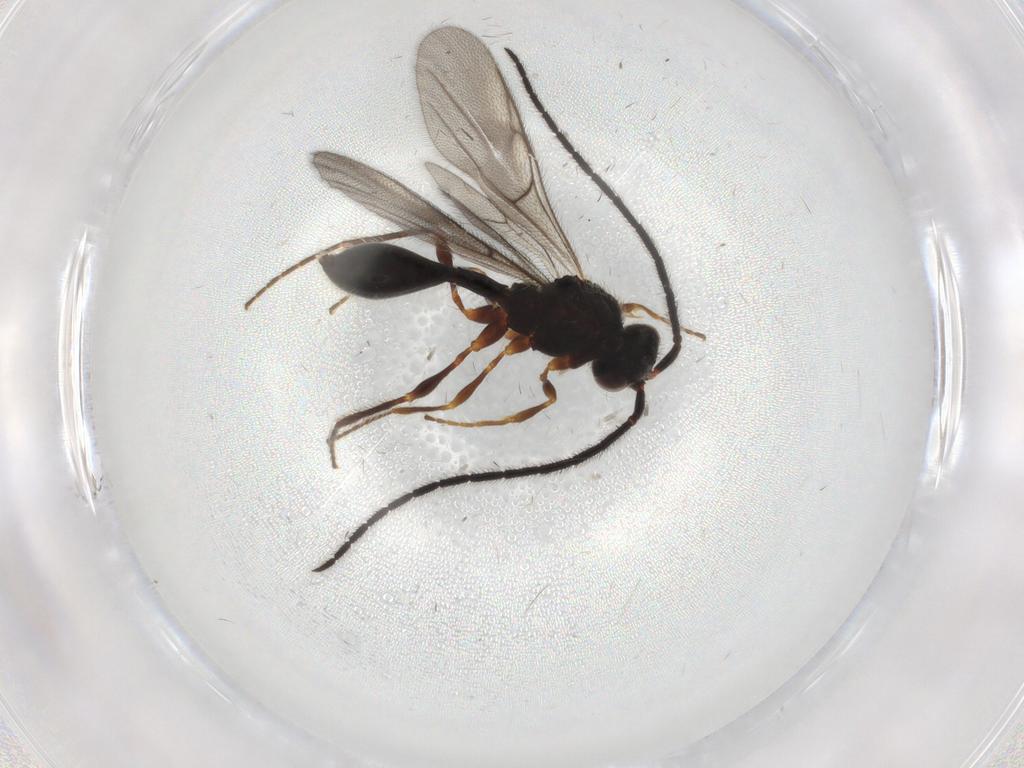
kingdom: Animalia
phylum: Arthropoda
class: Insecta
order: Hymenoptera
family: Diapriidae
